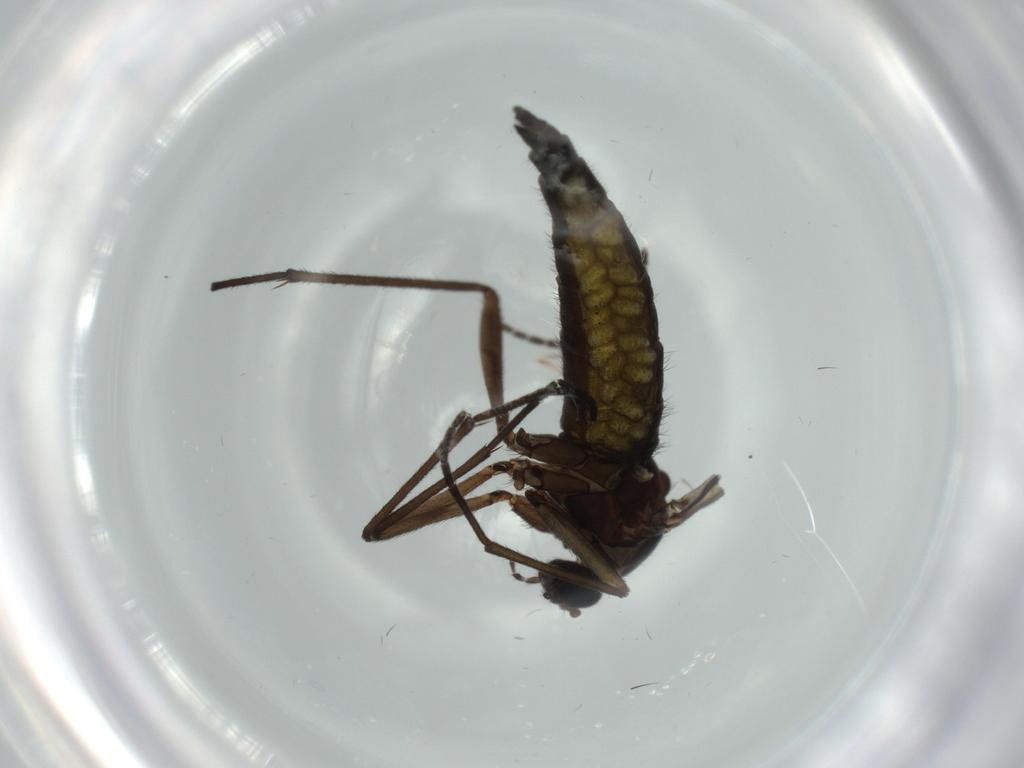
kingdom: Animalia
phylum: Arthropoda
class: Insecta
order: Diptera
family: Sciaridae
